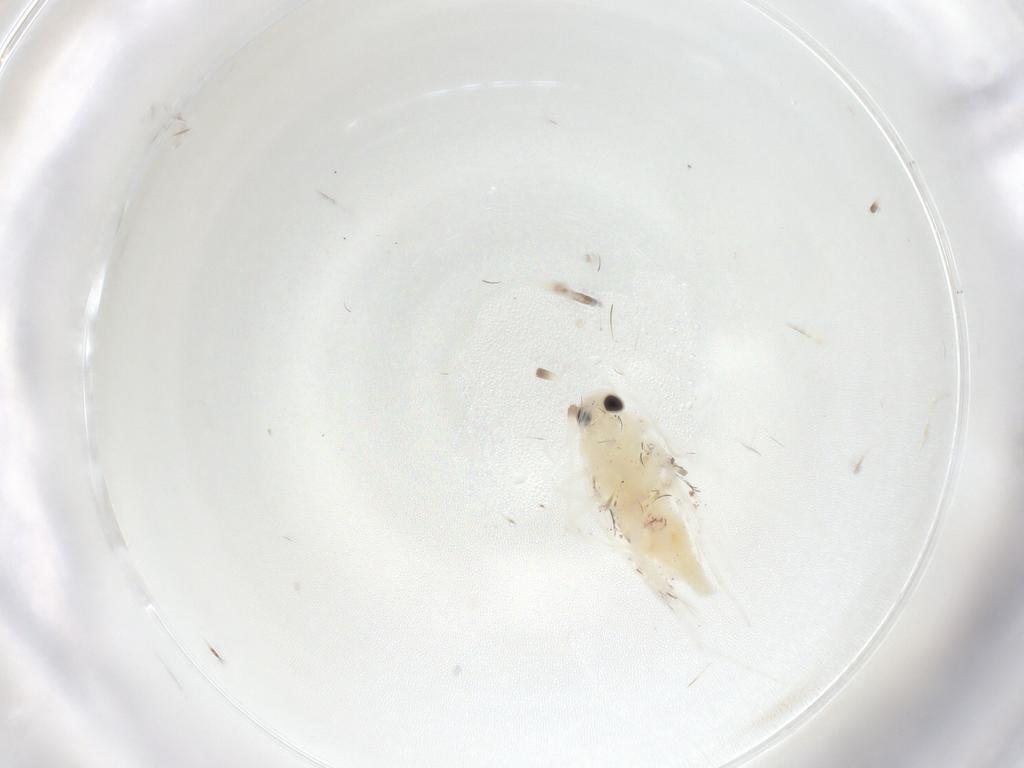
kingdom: Animalia
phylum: Arthropoda
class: Insecta
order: Lepidoptera
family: Gelechiidae
